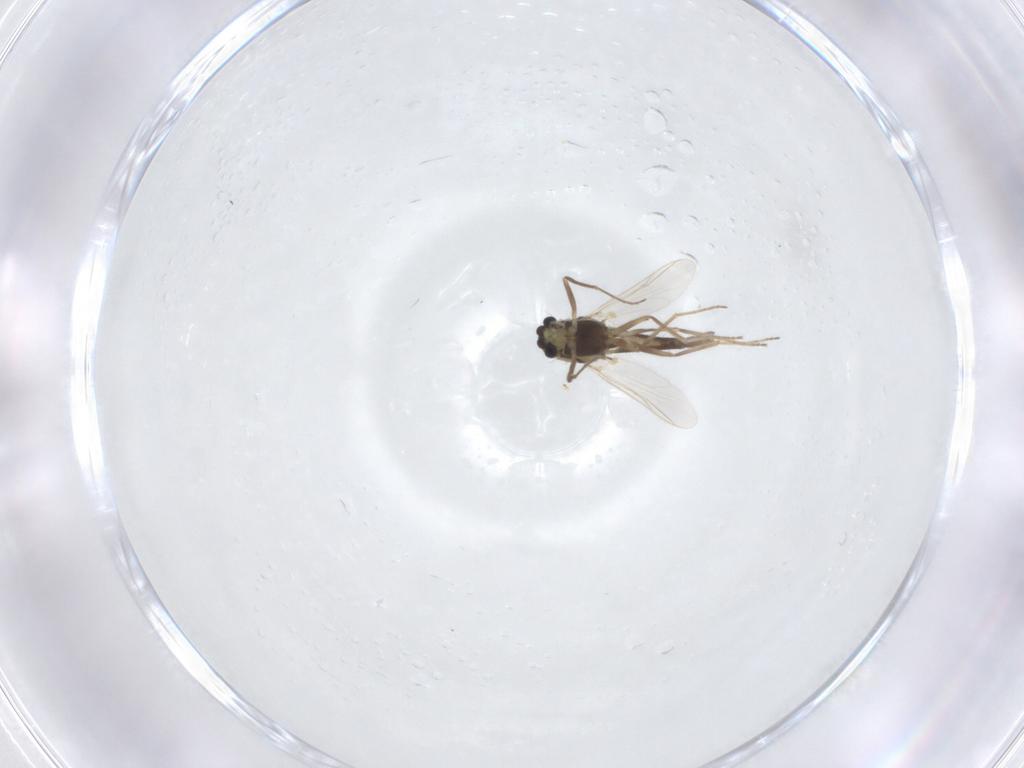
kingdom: Animalia
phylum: Arthropoda
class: Insecta
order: Diptera
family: Chironomidae
